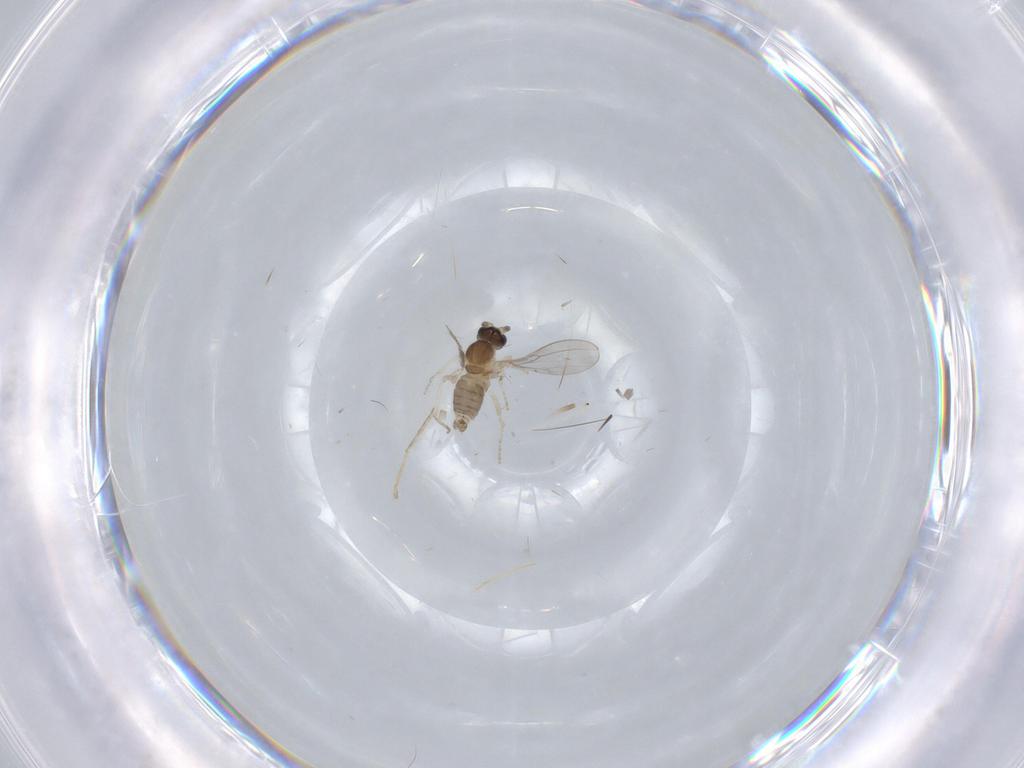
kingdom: Animalia
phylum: Arthropoda
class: Insecta
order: Diptera
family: Cecidomyiidae
